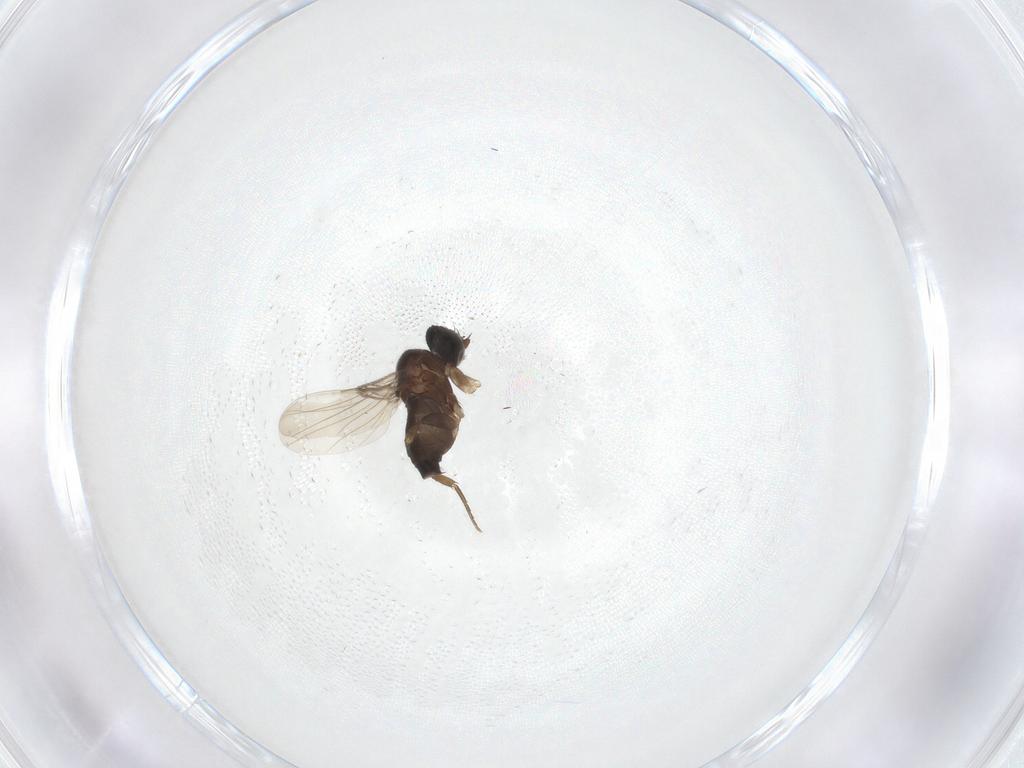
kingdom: Animalia
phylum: Arthropoda
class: Insecta
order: Diptera
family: Phoridae
